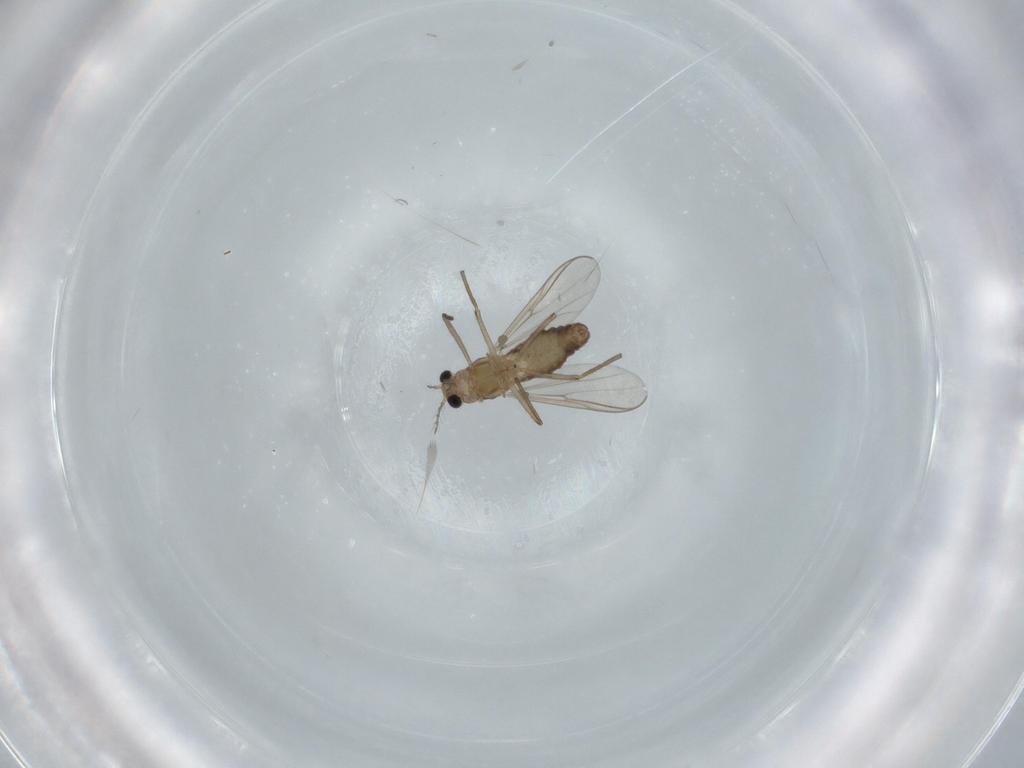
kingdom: Animalia
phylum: Arthropoda
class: Insecta
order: Diptera
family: Chironomidae
